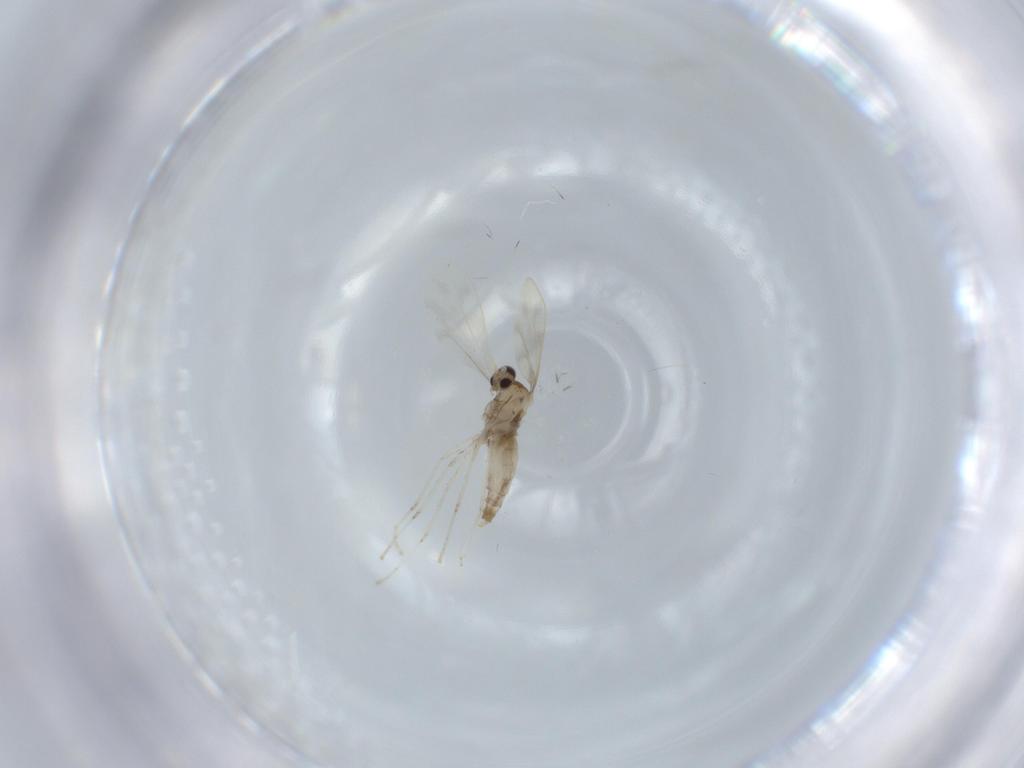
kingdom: Animalia
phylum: Arthropoda
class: Insecta
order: Diptera
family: Cecidomyiidae
